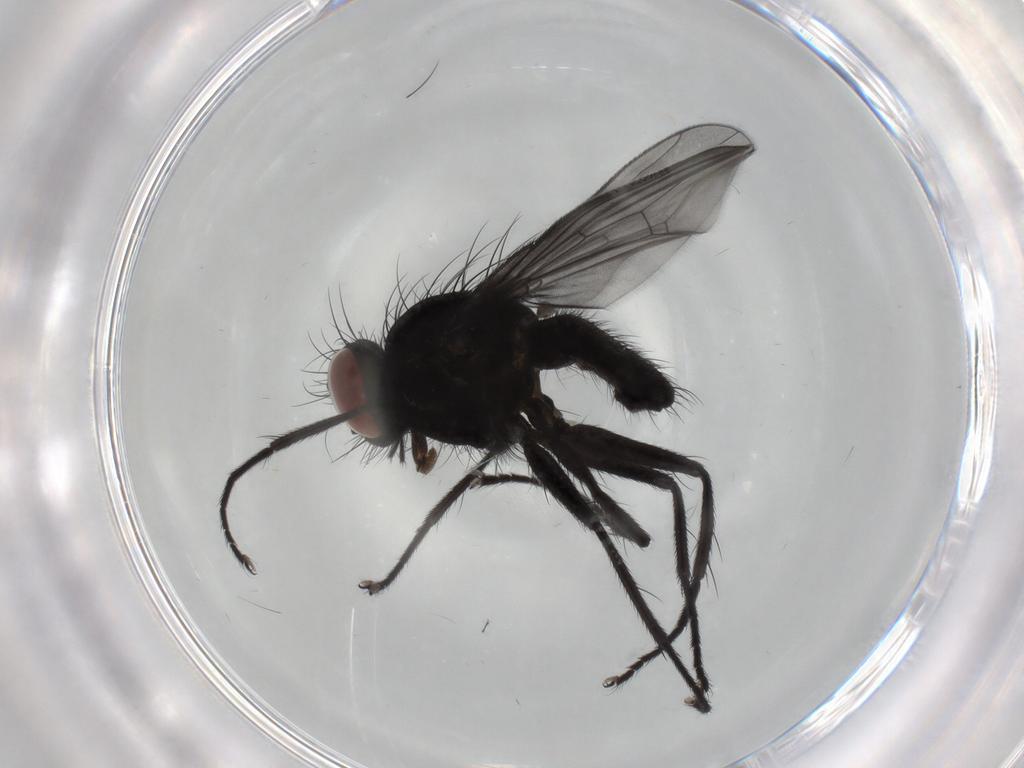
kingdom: Animalia
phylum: Arthropoda
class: Insecta
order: Diptera
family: Muscidae
